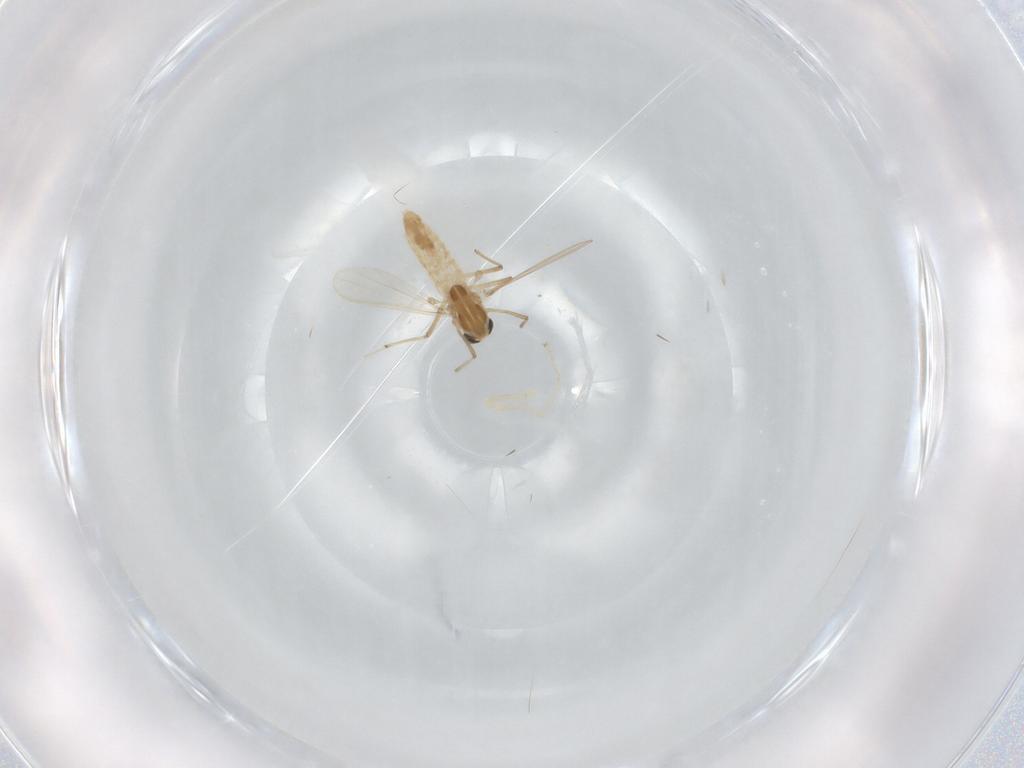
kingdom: Animalia
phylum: Arthropoda
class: Insecta
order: Diptera
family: Chironomidae
